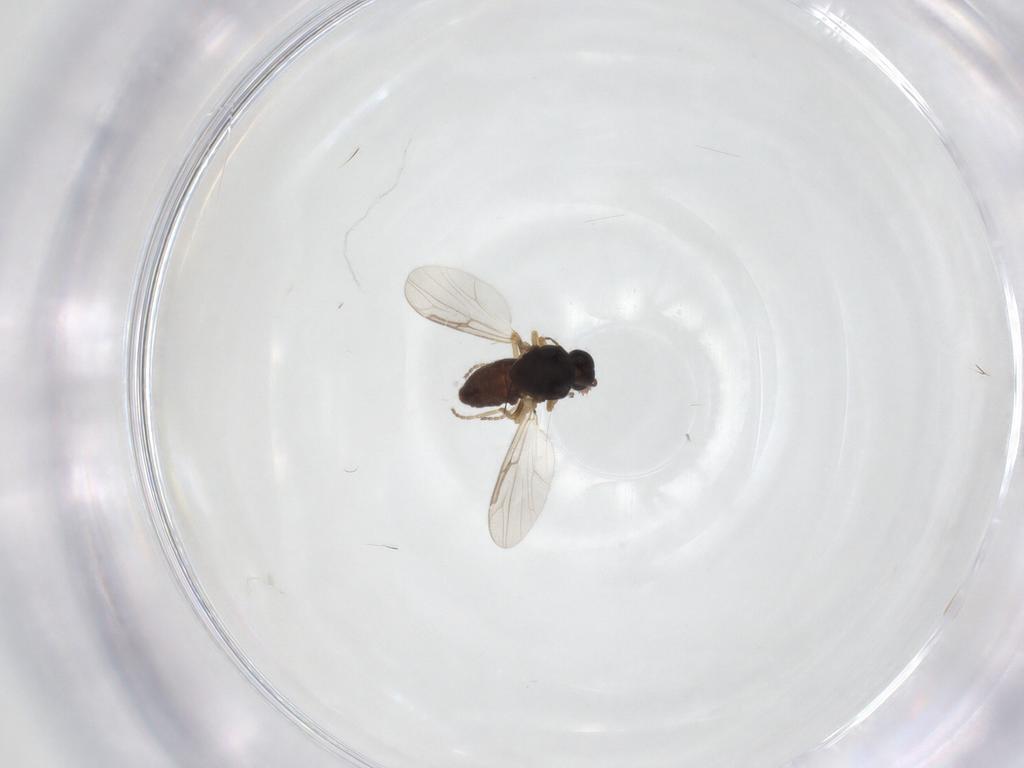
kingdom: Animalia
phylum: Arthropoda
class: Insecta
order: Diptera
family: Ceratopogonidae
